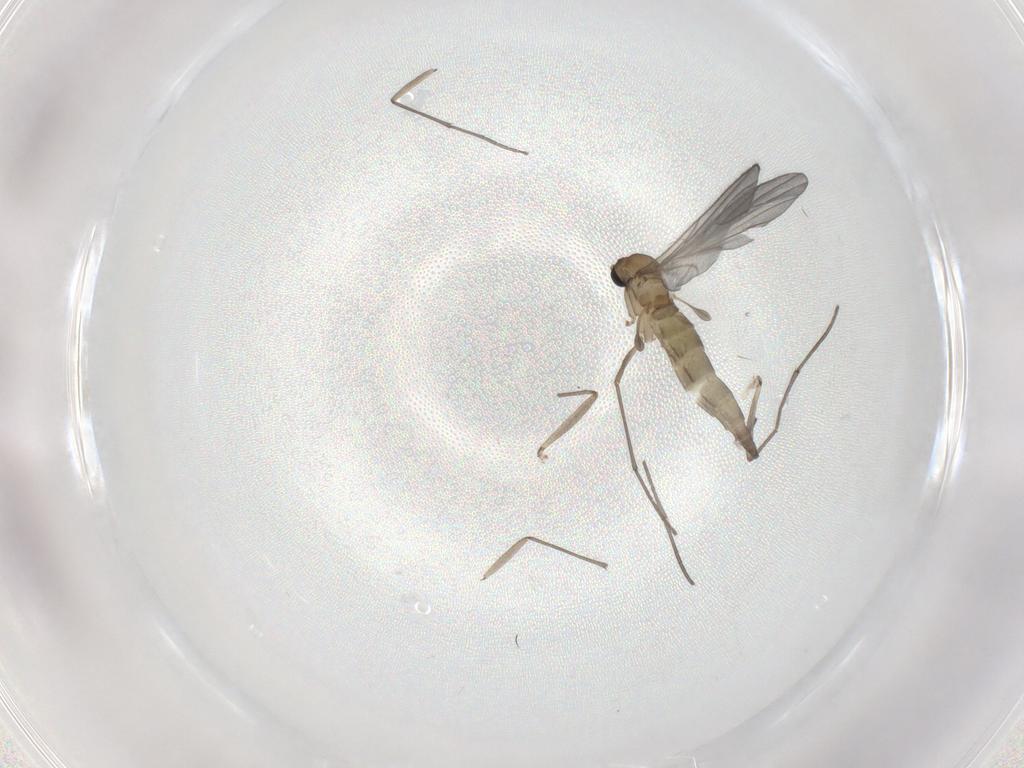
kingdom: Animalia
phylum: Arthropoda
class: Insecta
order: Diptera
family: Sciaridae
